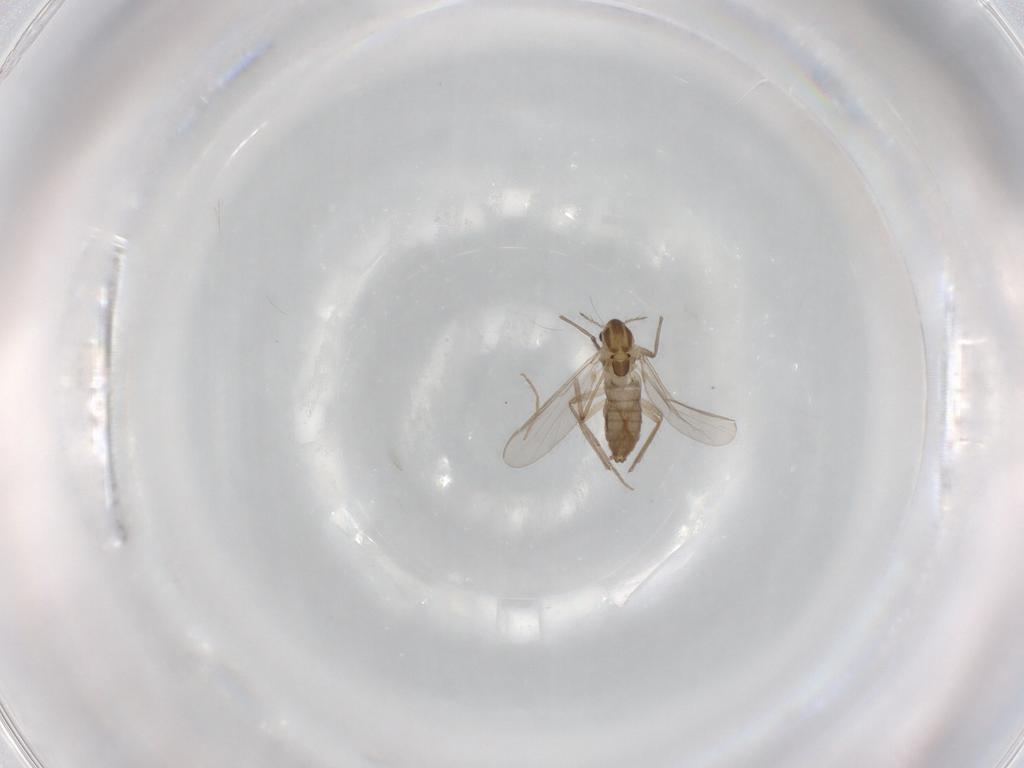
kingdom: Animalia
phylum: Arthropoda
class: Insecta
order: Diptera
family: Chironomidae
